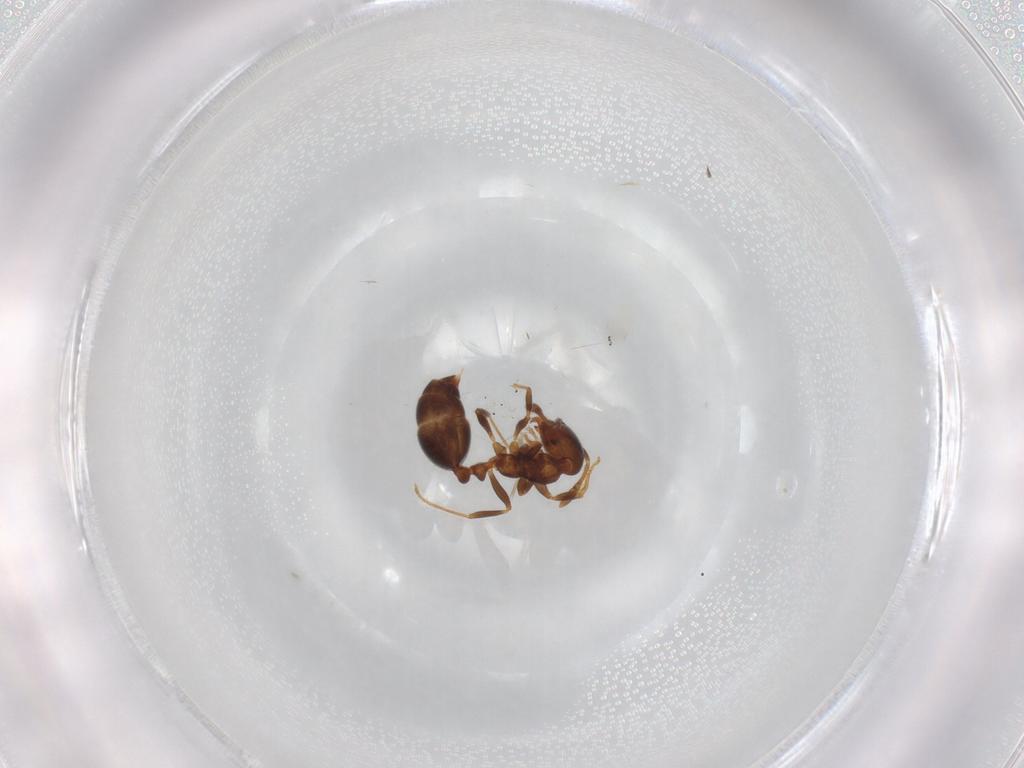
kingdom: Animalia
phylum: Arthropoda
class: Insecta
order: Hymenoptera
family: Formicidae
